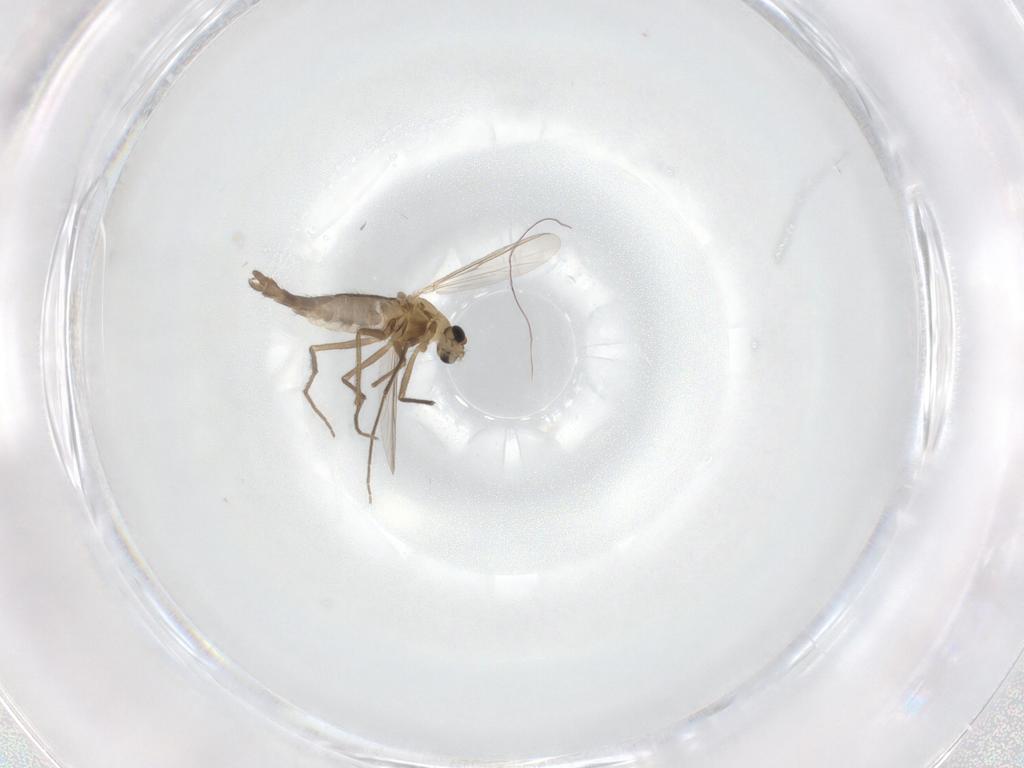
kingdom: Animalia
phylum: Arthropoda
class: Insecta
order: Diptera
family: Chironomidae
